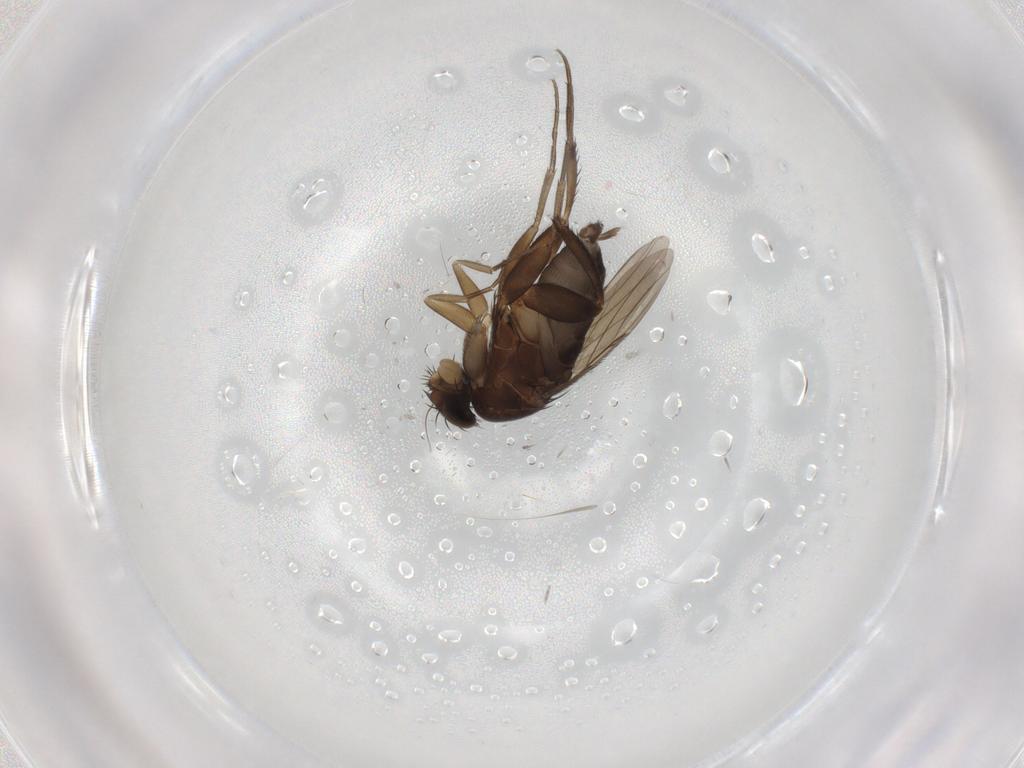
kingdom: Animalia
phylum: Arthropoda
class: Insecta
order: Diptera
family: Phoridae
